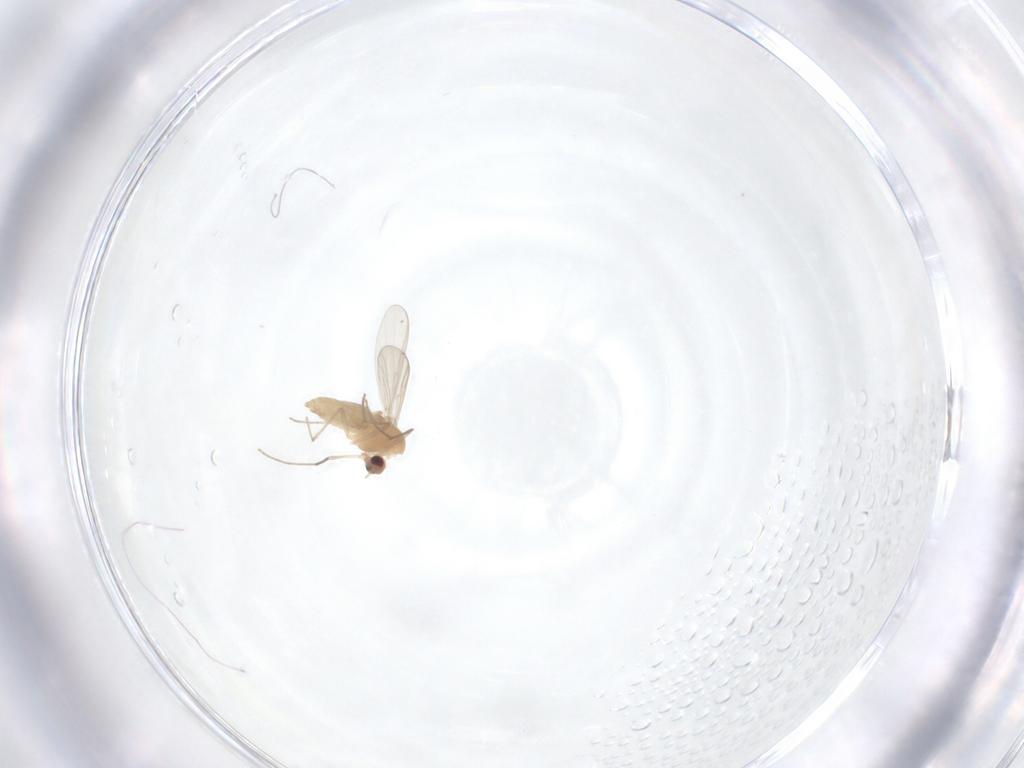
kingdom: Animalia
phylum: Arthropoda
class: Insecta
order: Diptera
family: Chironomidae
